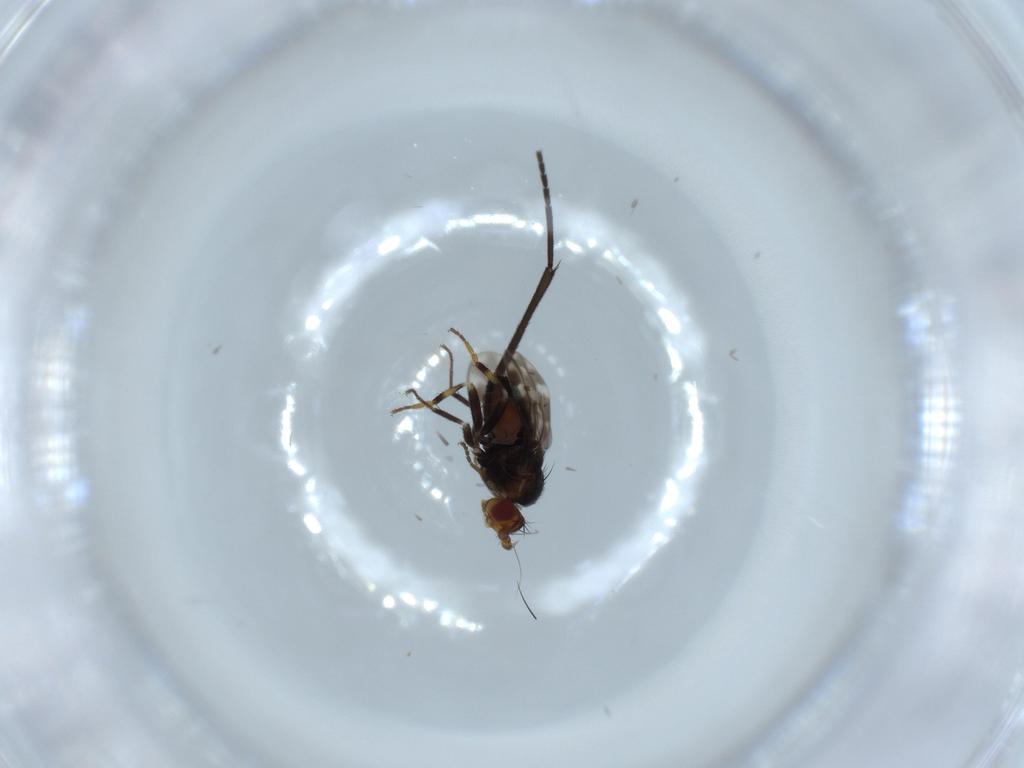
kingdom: Animalia
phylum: Arthropoda
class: Insecta
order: Diptera
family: Sphaeroceridae
